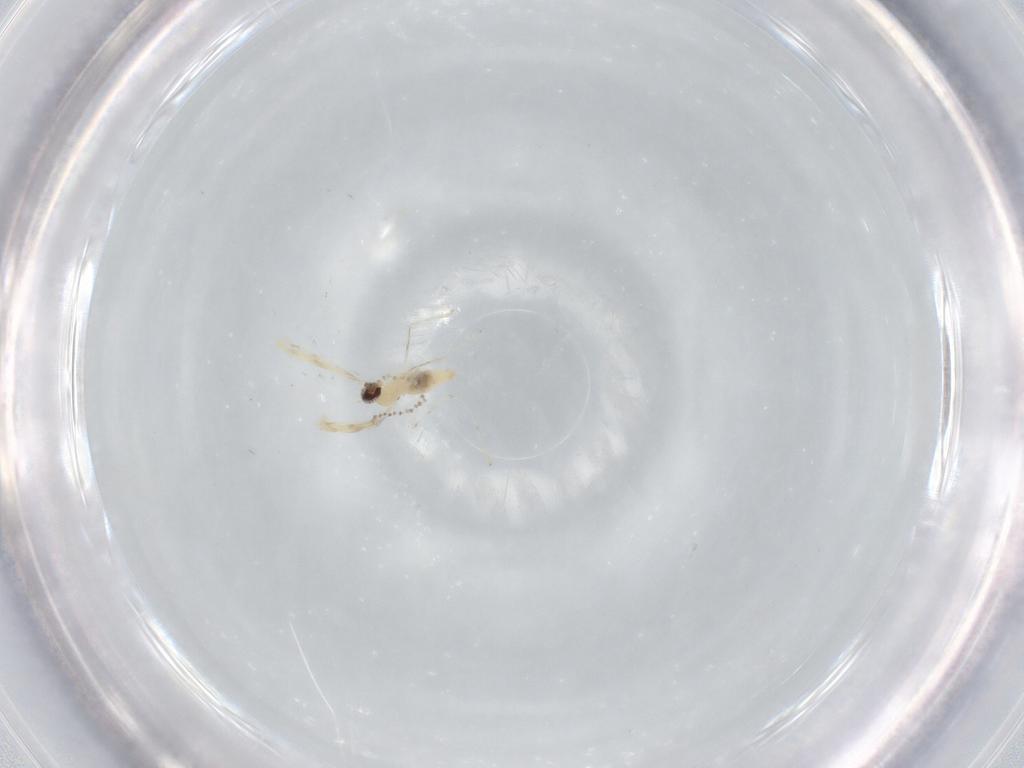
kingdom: Animalia
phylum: Arthropoda
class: Insecta
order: Diptera
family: Cecidomyiidae
